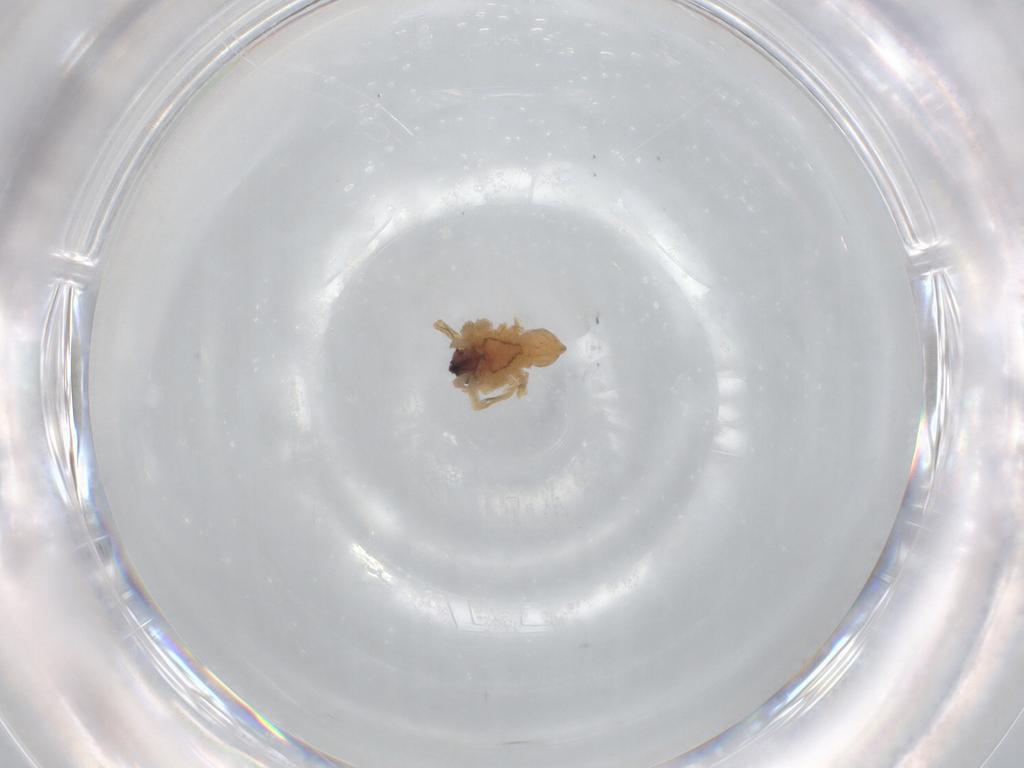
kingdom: Animalia
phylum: Arthropoda
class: Arachnida
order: Araneae
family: Lycosidae
